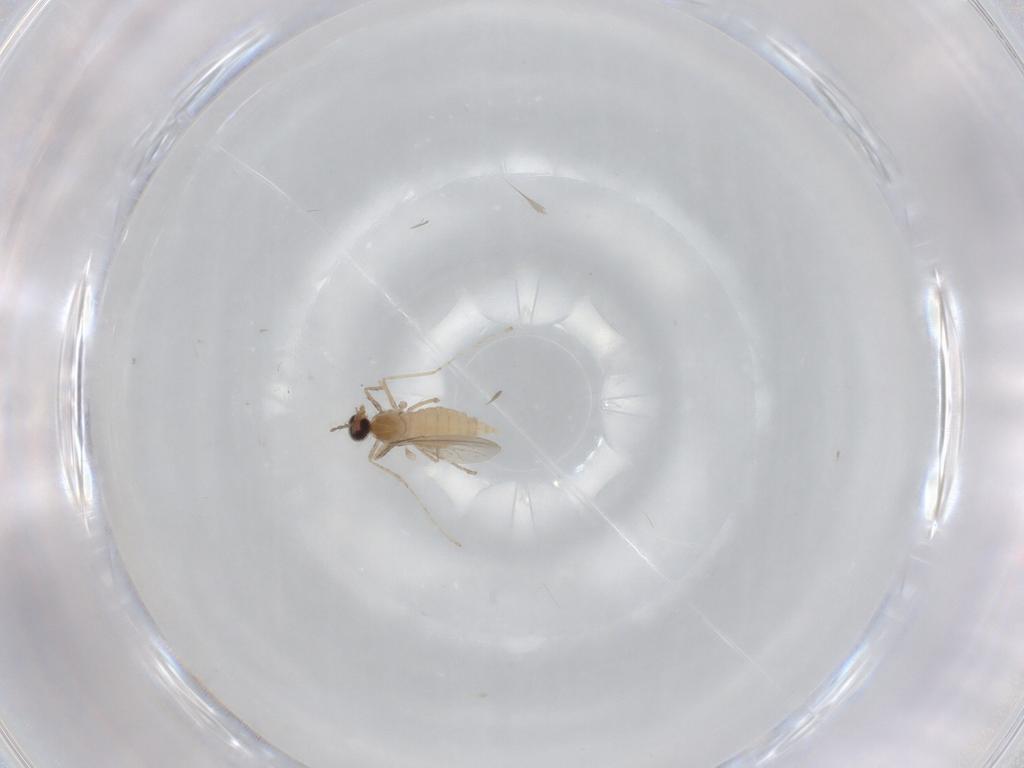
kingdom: Animalia
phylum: Arthropoda
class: Insecta
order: Diptera
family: Cecidomyiidae
